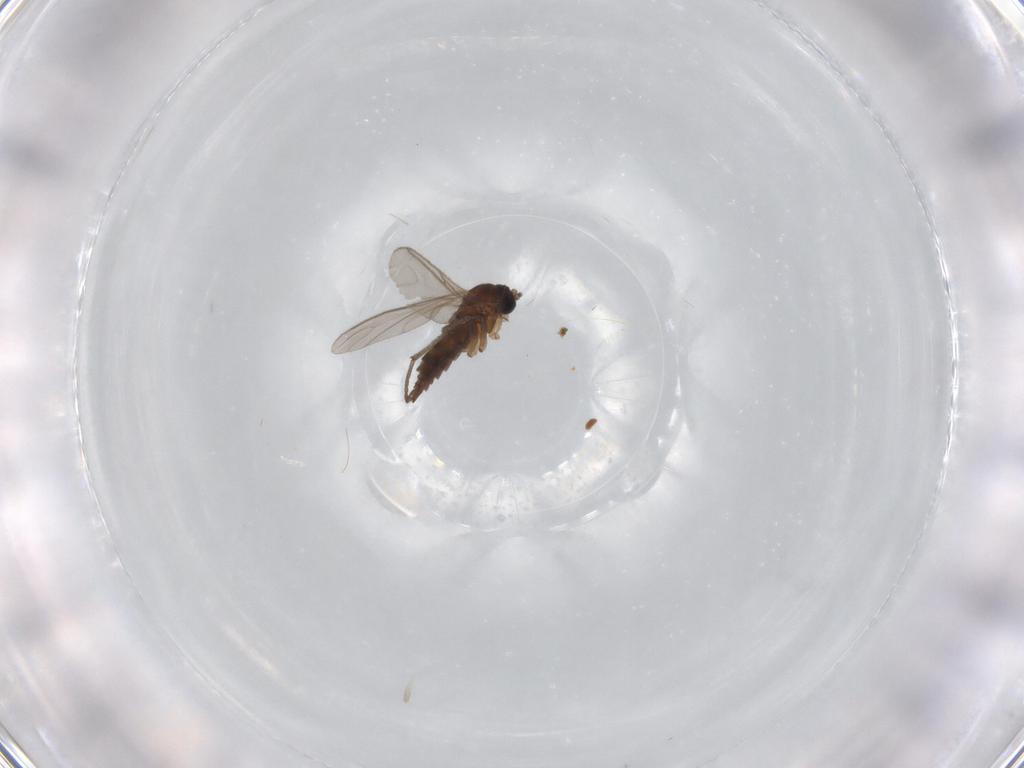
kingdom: Animalia
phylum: Arthropoda
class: Insecta
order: Diptera
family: Sciaridae
